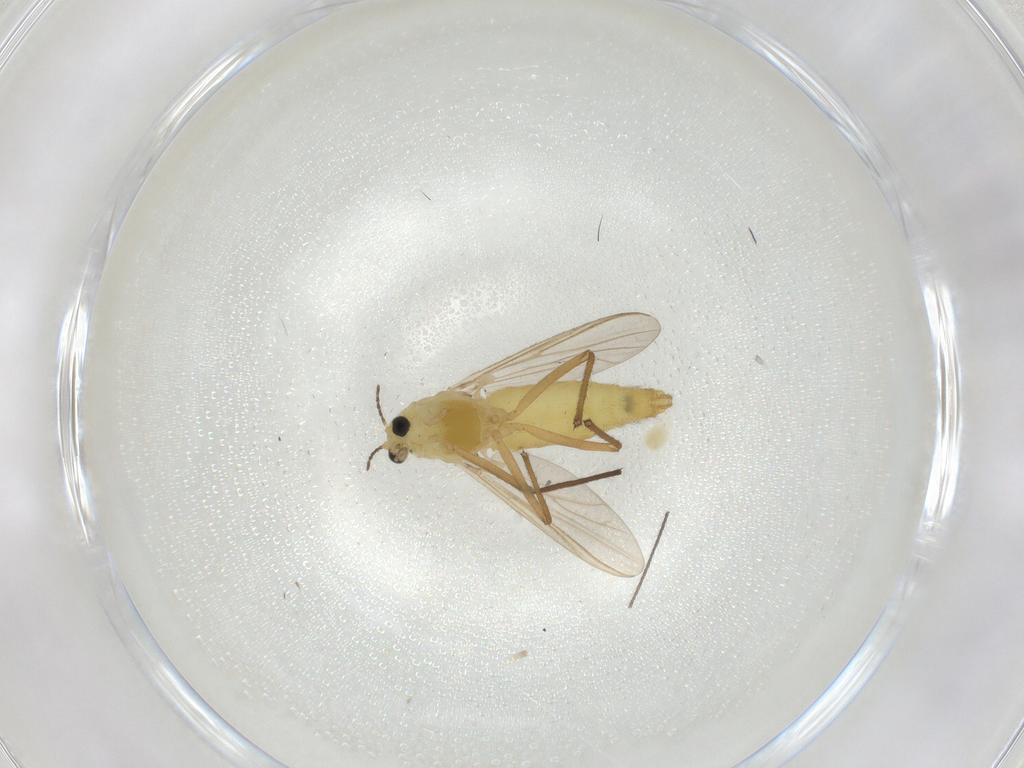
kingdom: Animalia
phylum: Arthropoda
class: Insecta
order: Diptera
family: Chironomidae
